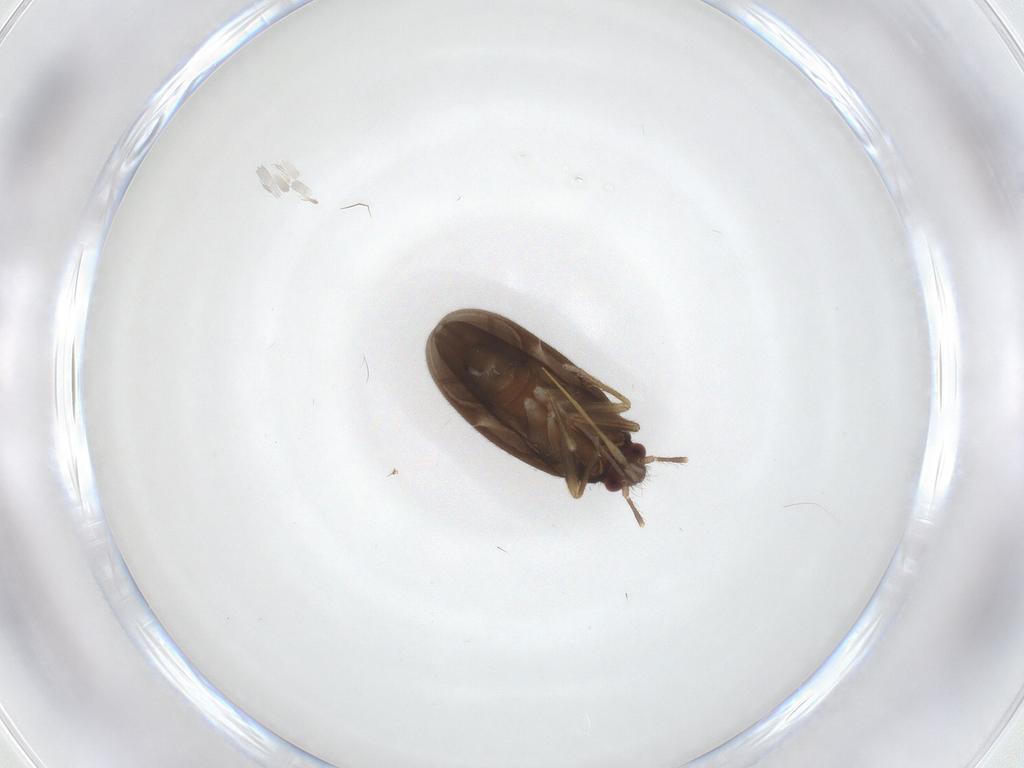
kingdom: Animalia
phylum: Arthropoda
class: Insecta
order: Hemiptera
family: Ceratocombidae
